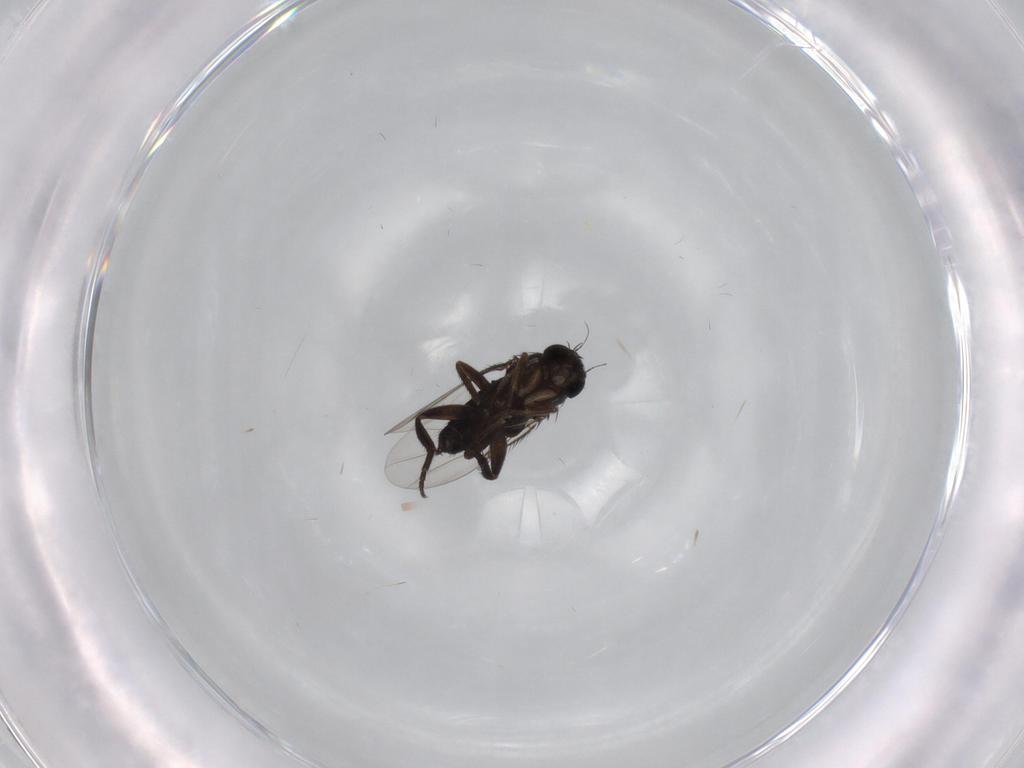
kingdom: Animalia
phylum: Arthropoda
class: Insecta
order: Diptera
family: Phoridae
